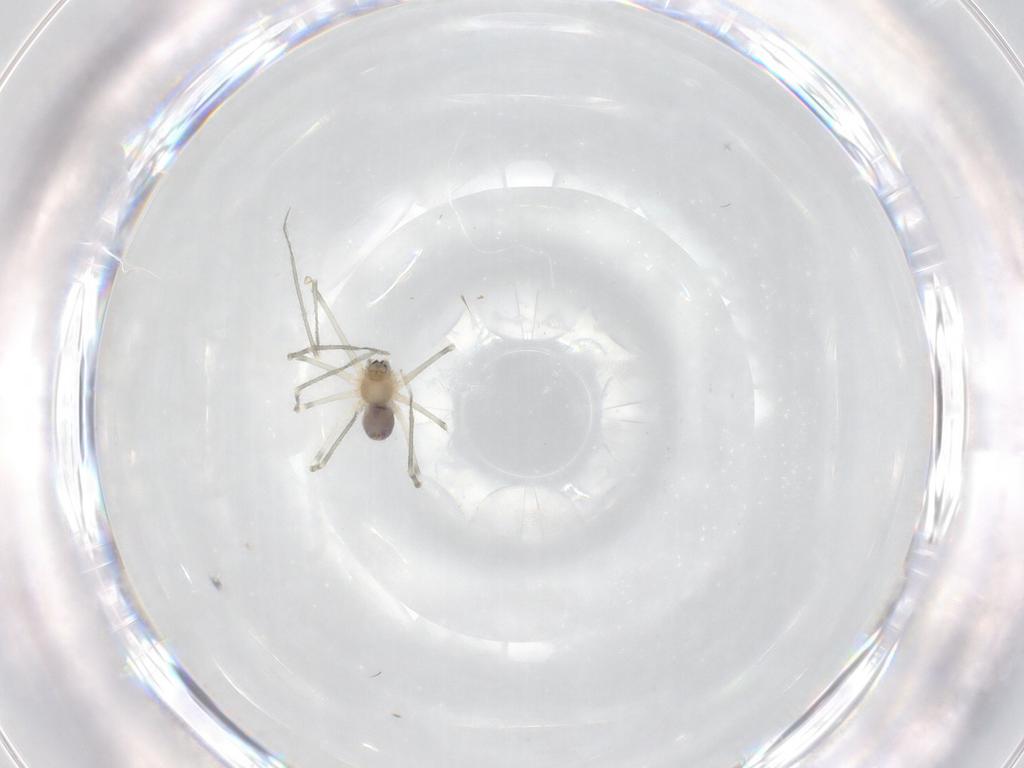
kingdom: Animalia
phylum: Arthropoda
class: Arachnida
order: Araneae
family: Pholcidae
